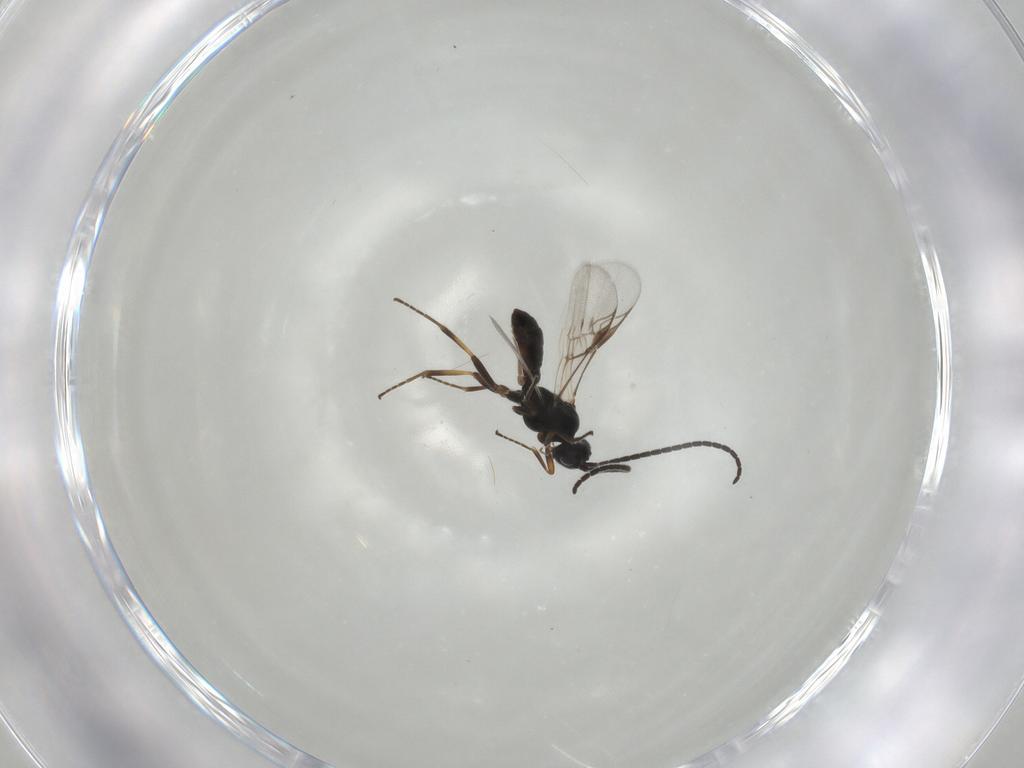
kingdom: Animalia
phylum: Arthropoda
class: Insecta
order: Hymenoptera
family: Braconidae
